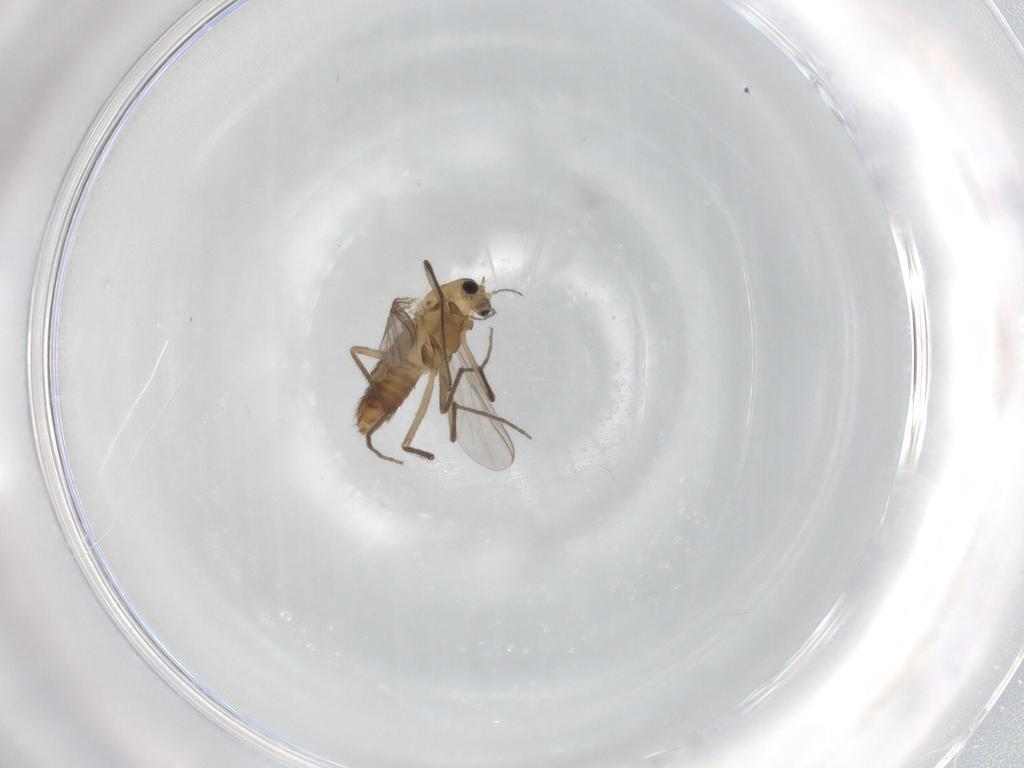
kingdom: Animalia
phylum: Arthropoda
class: Insecta
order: Diptera
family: Chironomidae
